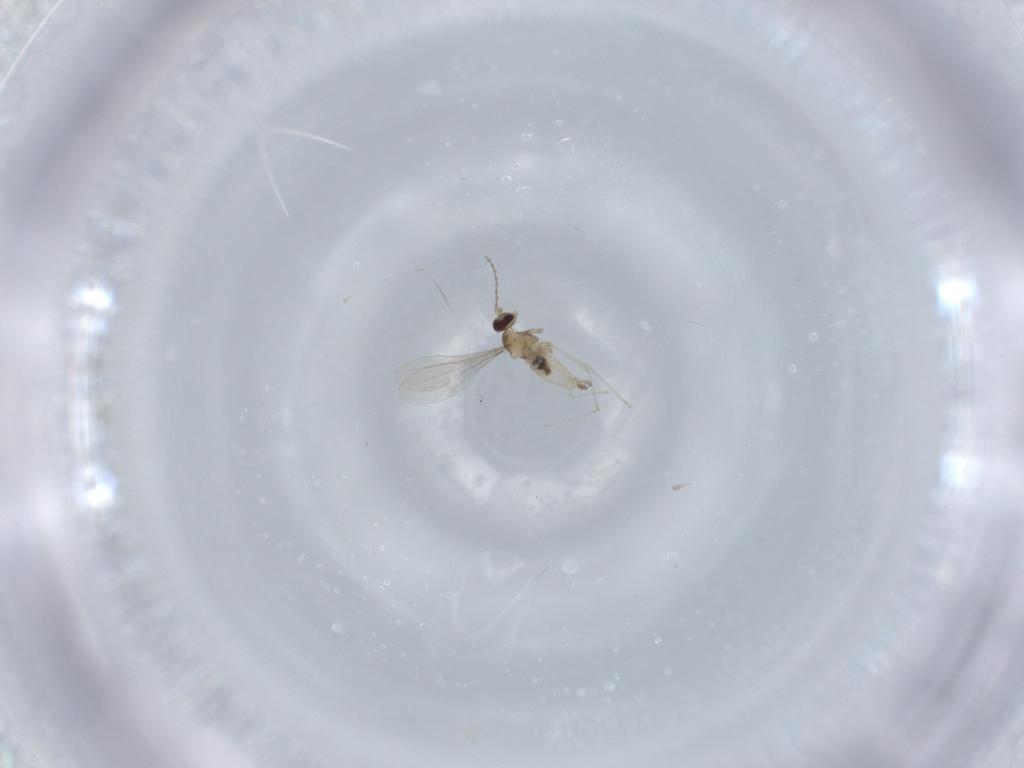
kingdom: Animalia
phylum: Arthropoda
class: Insecta
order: Diptera
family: Cecidomyiidae
